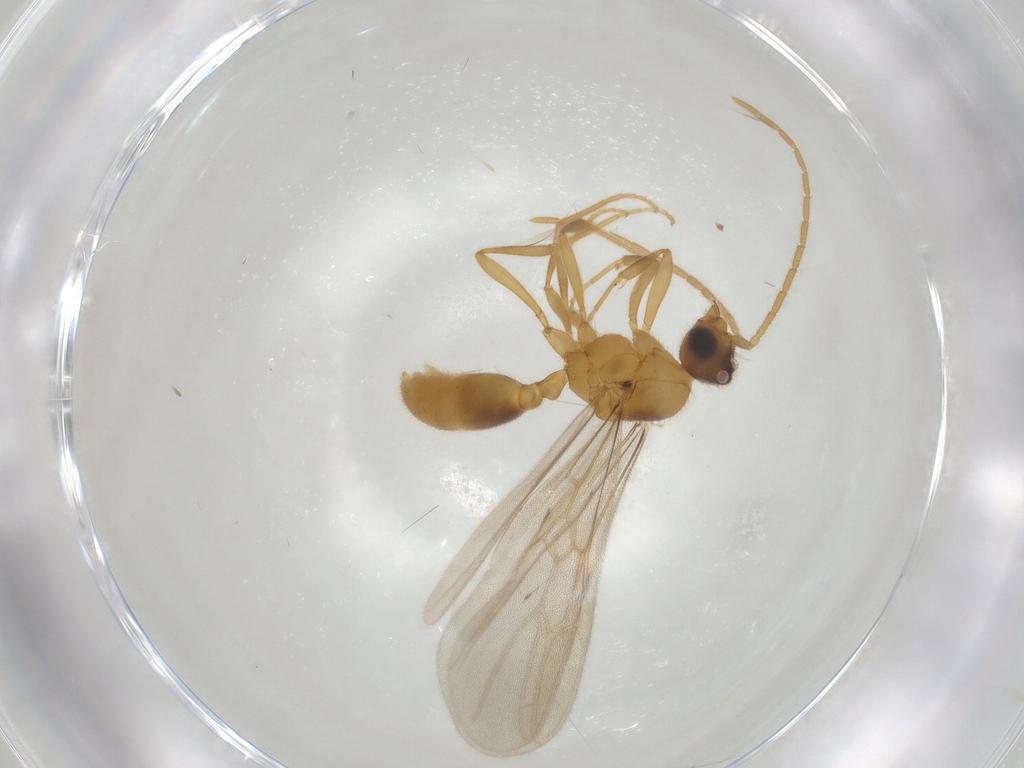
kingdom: Animalia
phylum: Arthropoda
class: Insecta
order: Hymenoptera
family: Formicidae
